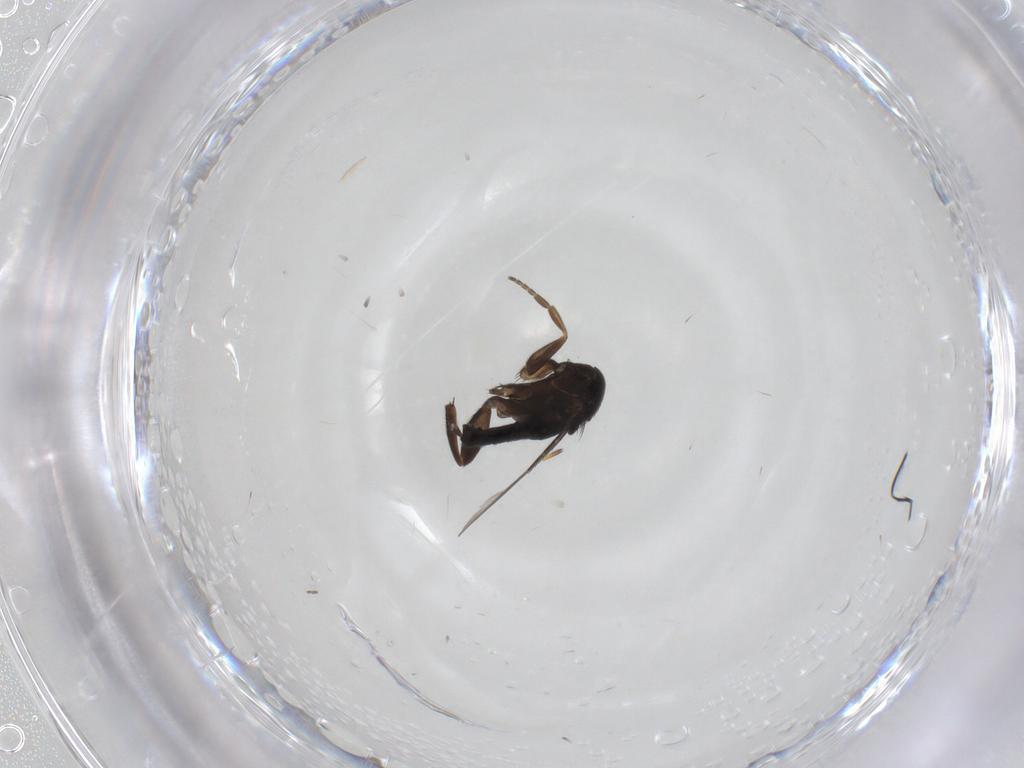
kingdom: Animalia
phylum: Arthropoda
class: Insecta
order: Diptera
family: Phoridae
